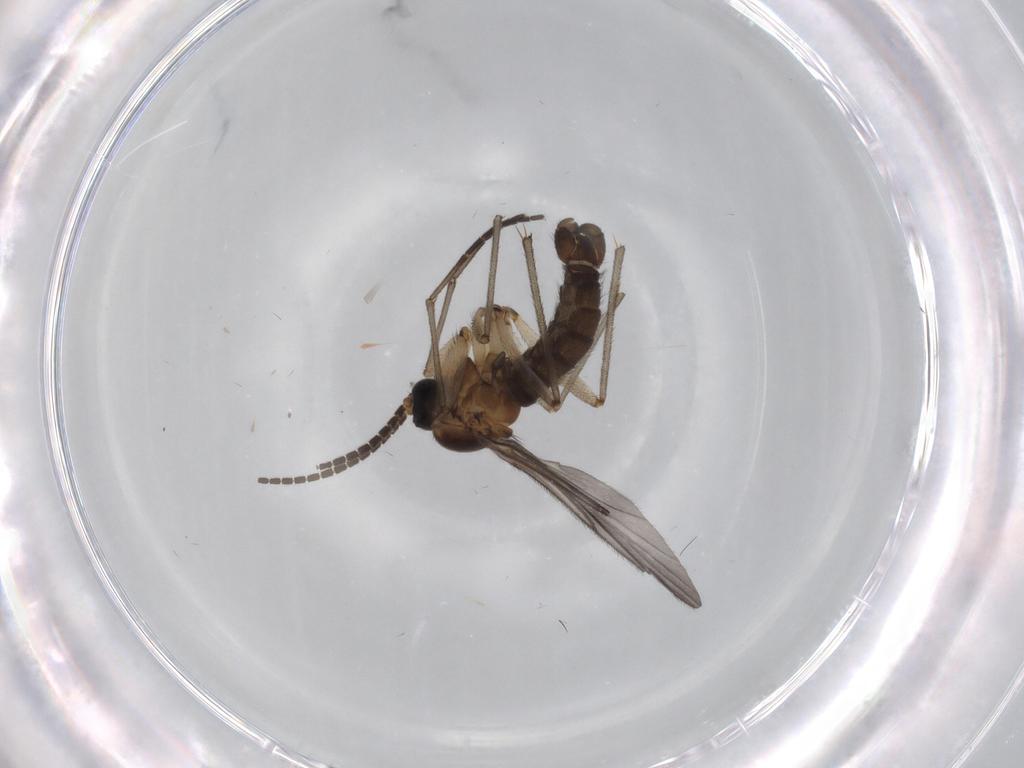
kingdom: Animalia
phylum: Arthropoda
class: Insecta
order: Diptera
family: Sciaridae
